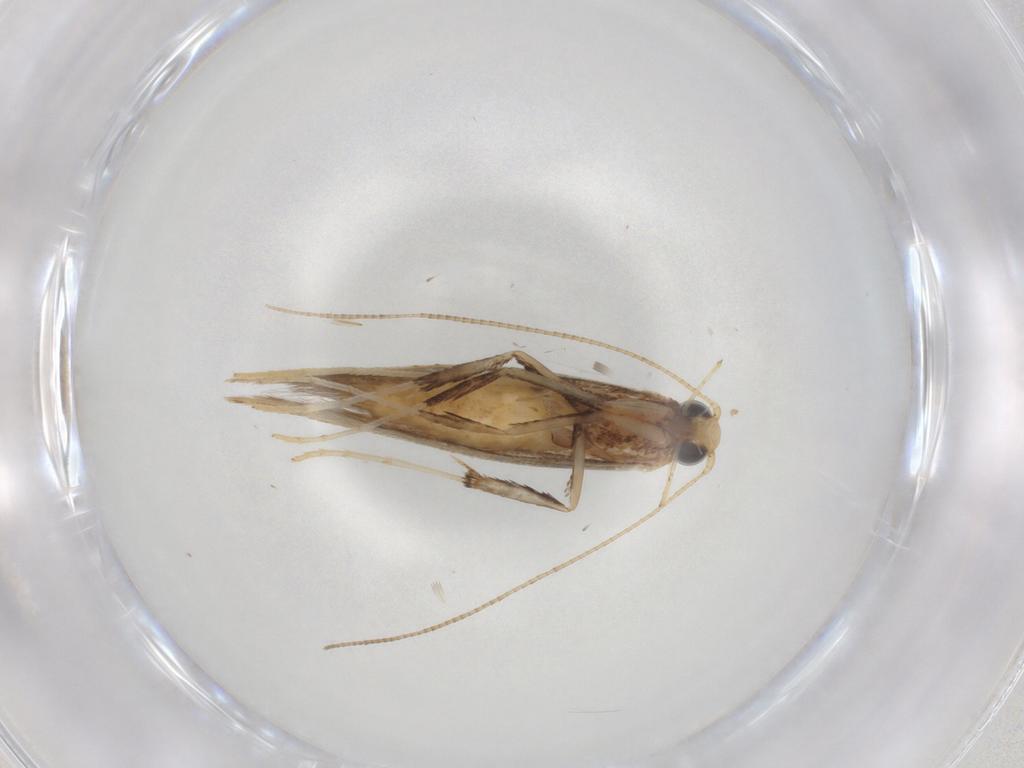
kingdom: Animalia
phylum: Arthropoda
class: Insecta
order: Lepidoptera
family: Gracillariidae
